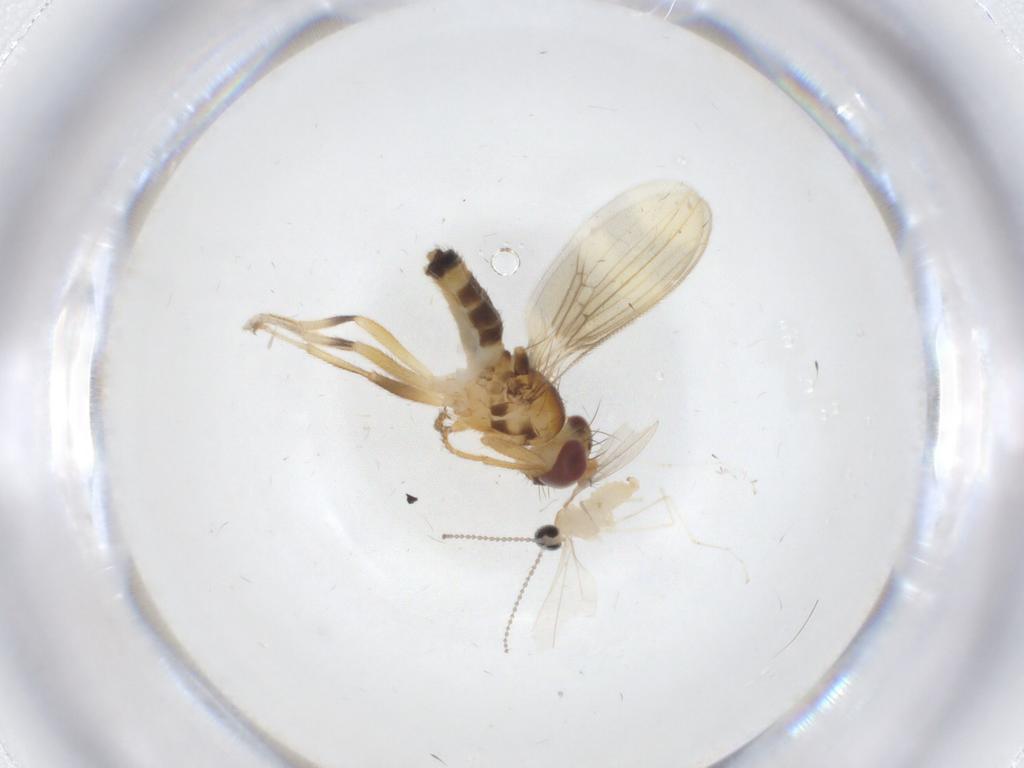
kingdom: Animalia
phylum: Arthropoda
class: Insecta
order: Diptera
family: Periscelididae
